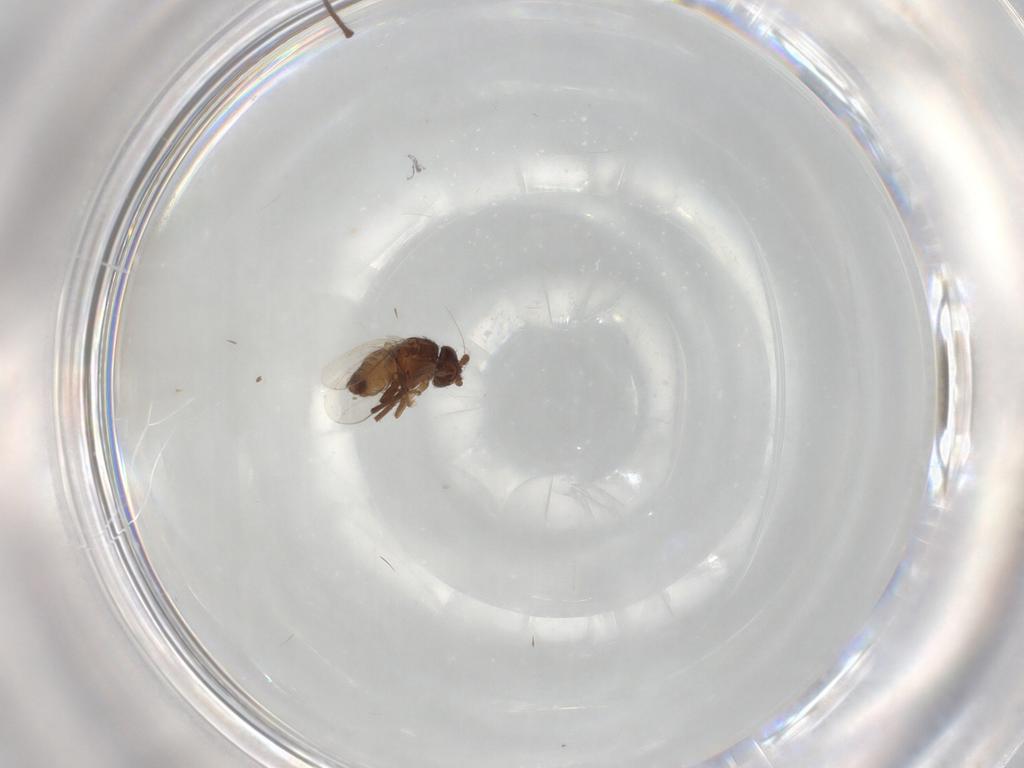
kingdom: Animalia
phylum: Arthropoda
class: Insecta
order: Diptera
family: Sphaeroceridae
